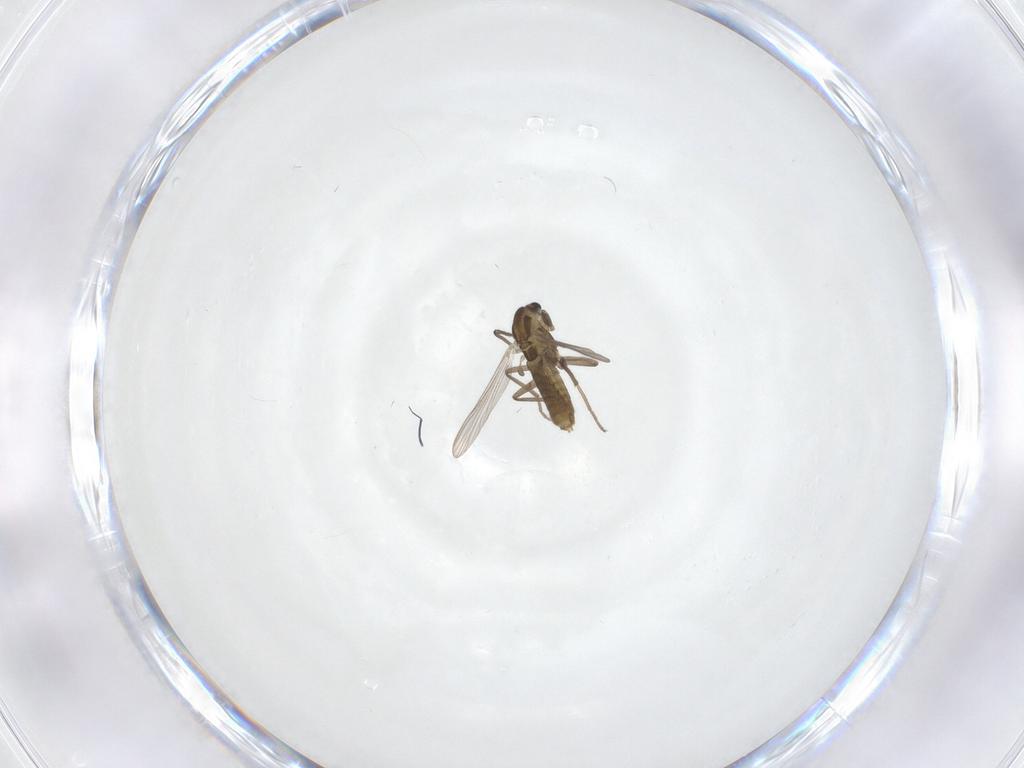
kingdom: Animalia
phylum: Arthropoda
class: Insecta
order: Diptera
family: Chironomidae
